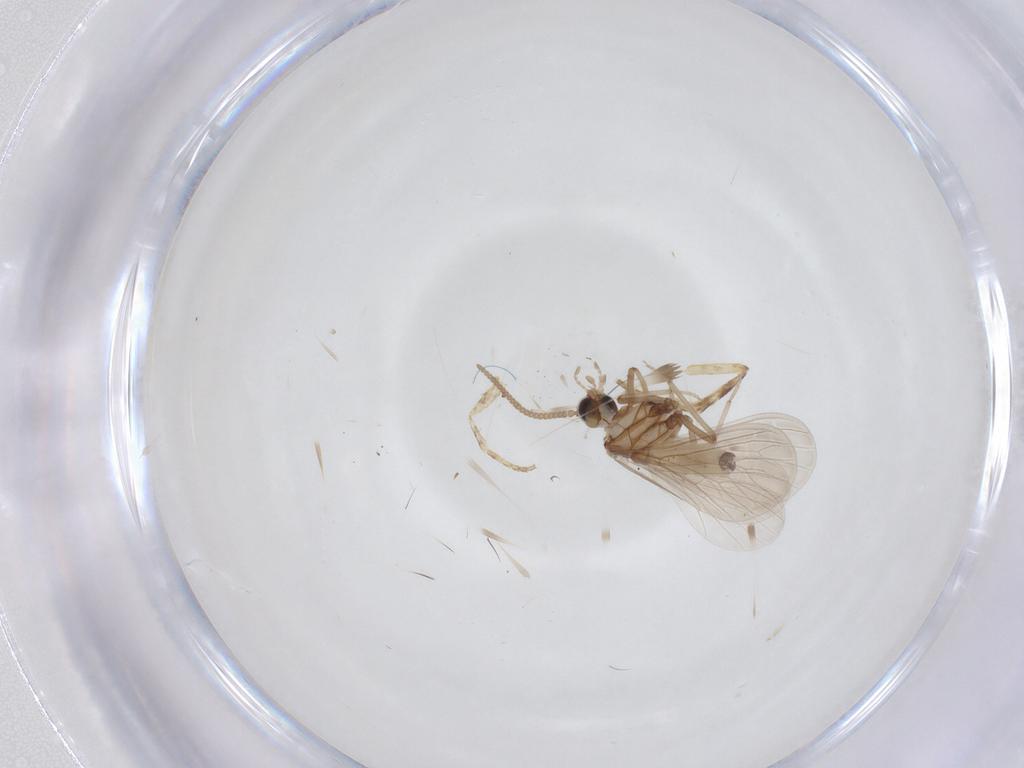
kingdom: Animalia
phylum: Arthropoda
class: Insecta
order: Neuroptera
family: Coniopterygidae
